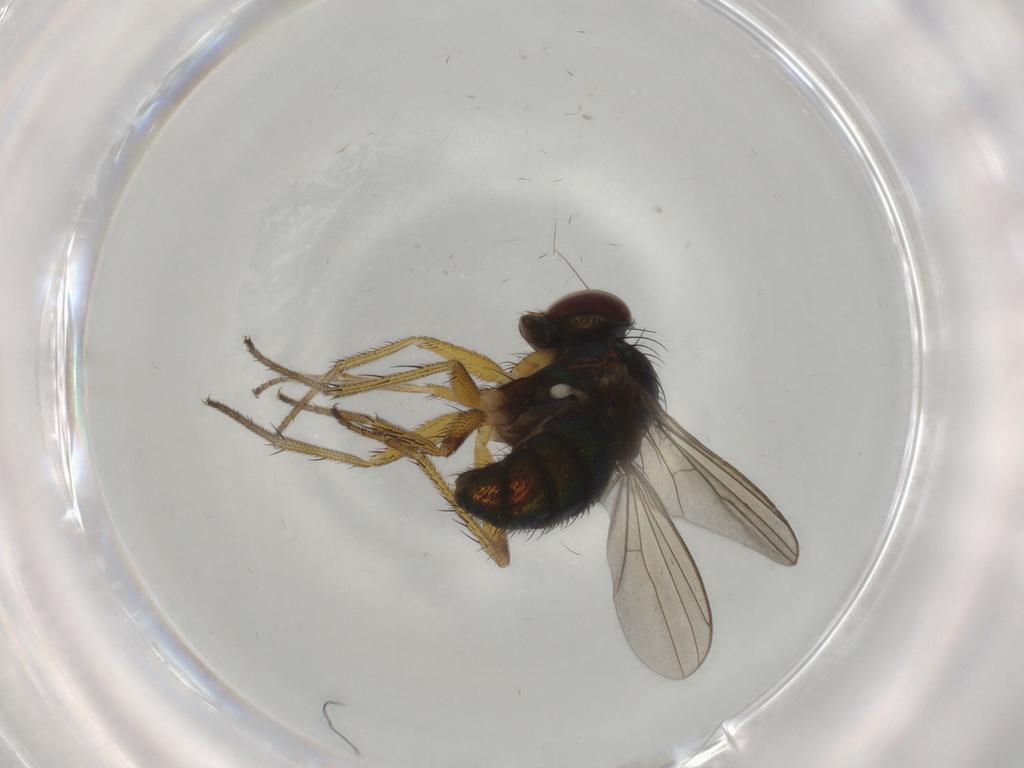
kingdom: Animalia
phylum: Arthropoda
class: Insecta
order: Diptera
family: Dolichopodidae
